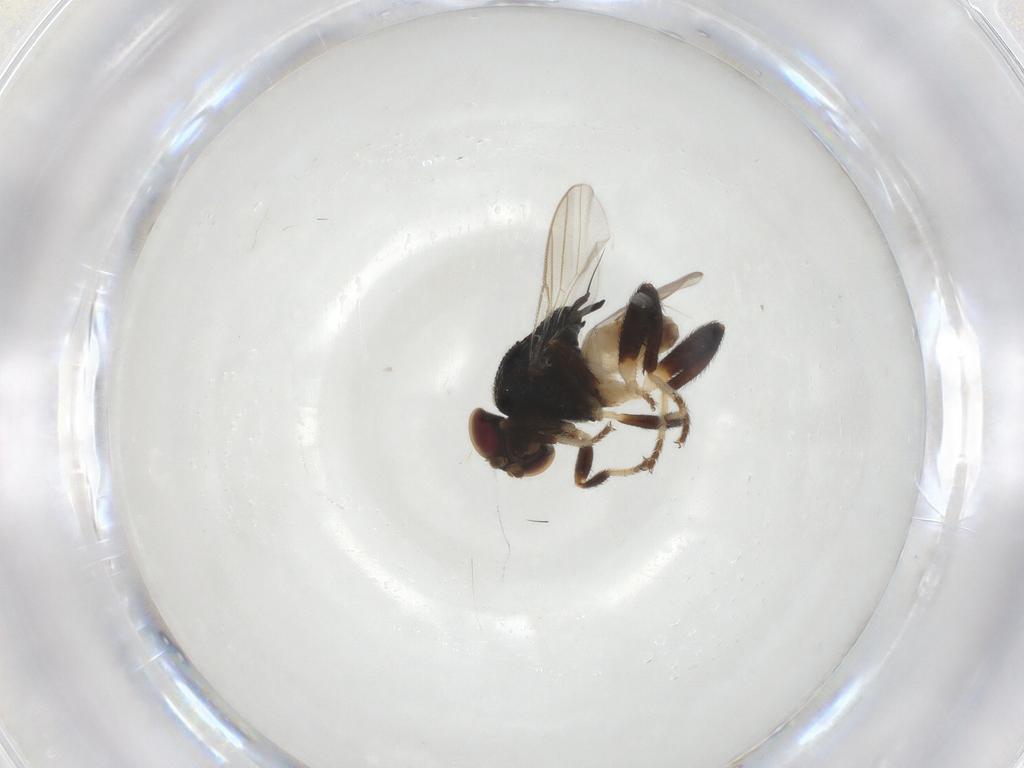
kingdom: Animalia
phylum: Arthropoda
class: Insecta
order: Diptera
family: Chloropidae
